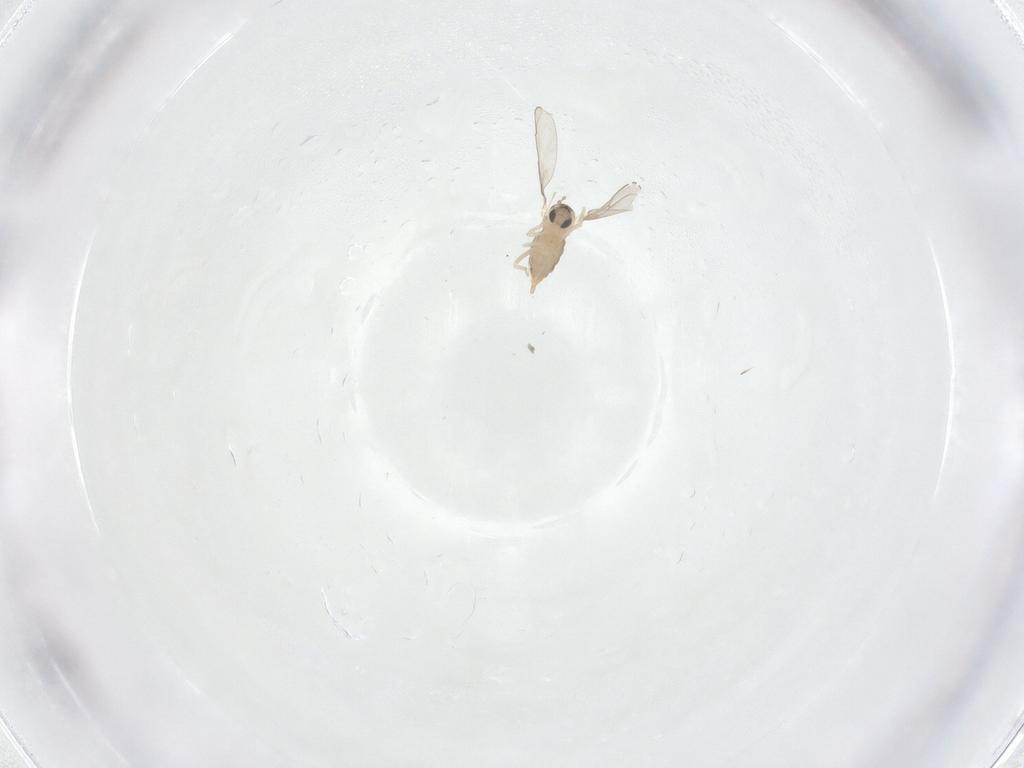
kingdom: Animalia
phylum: Arthropoda
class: Insecta
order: Diptera
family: Cecidomyiidae
